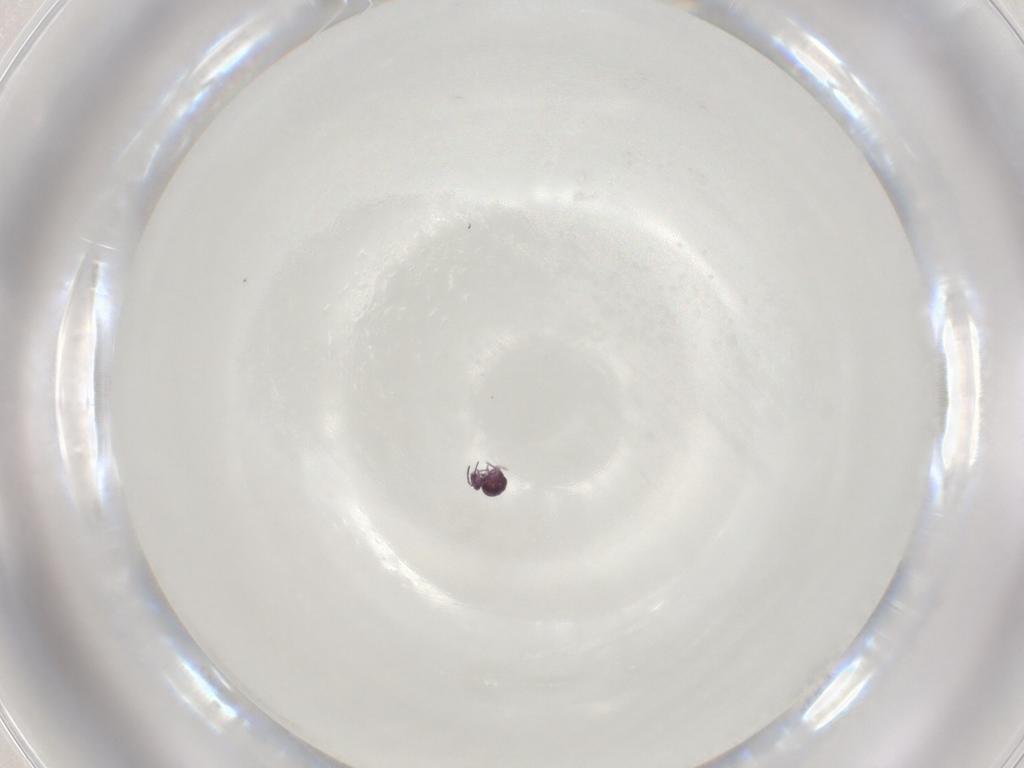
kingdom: Animalia
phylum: Arthropoda
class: Collembola
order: Symphypleona
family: Sminthurididae
